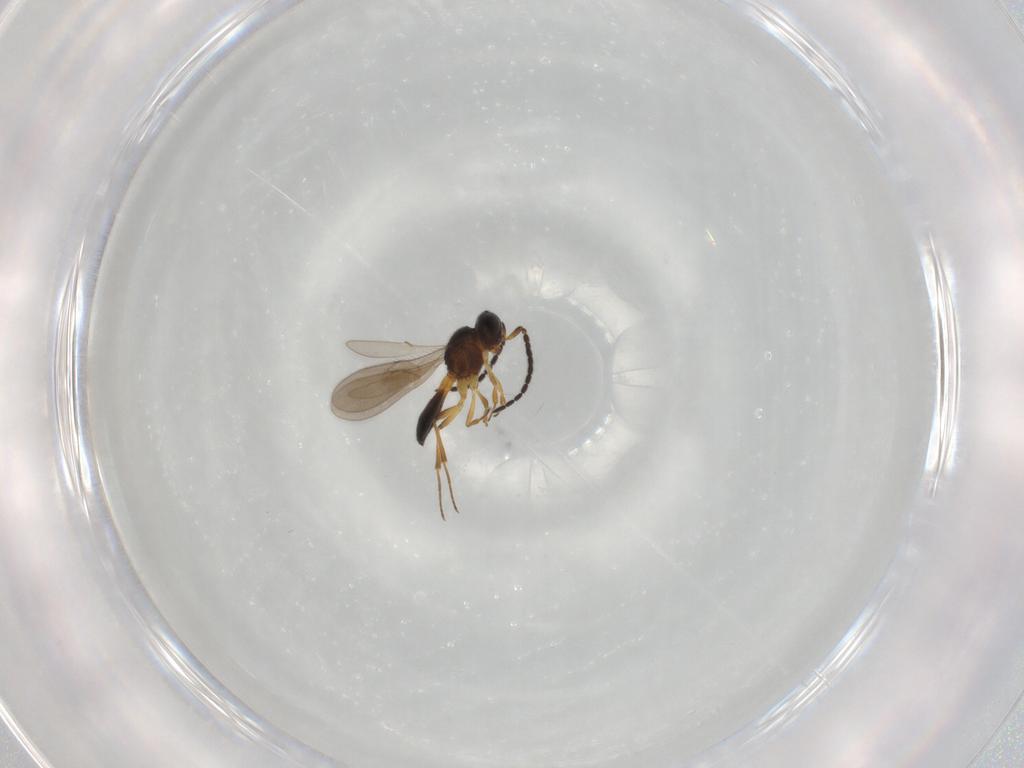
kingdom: Animalia
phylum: Arthropoda
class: Insecta
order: Hymenoptera
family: Scelionidae
